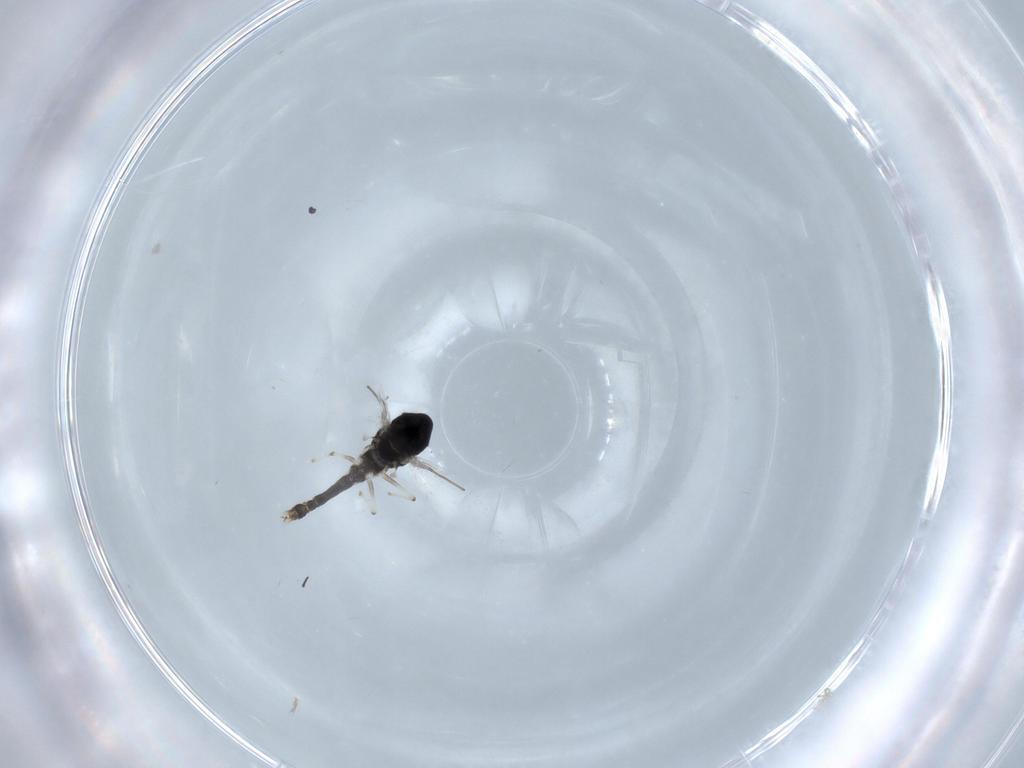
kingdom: Animalia
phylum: Arthropoda
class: Insecta
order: Diptera
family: Chironomidae
